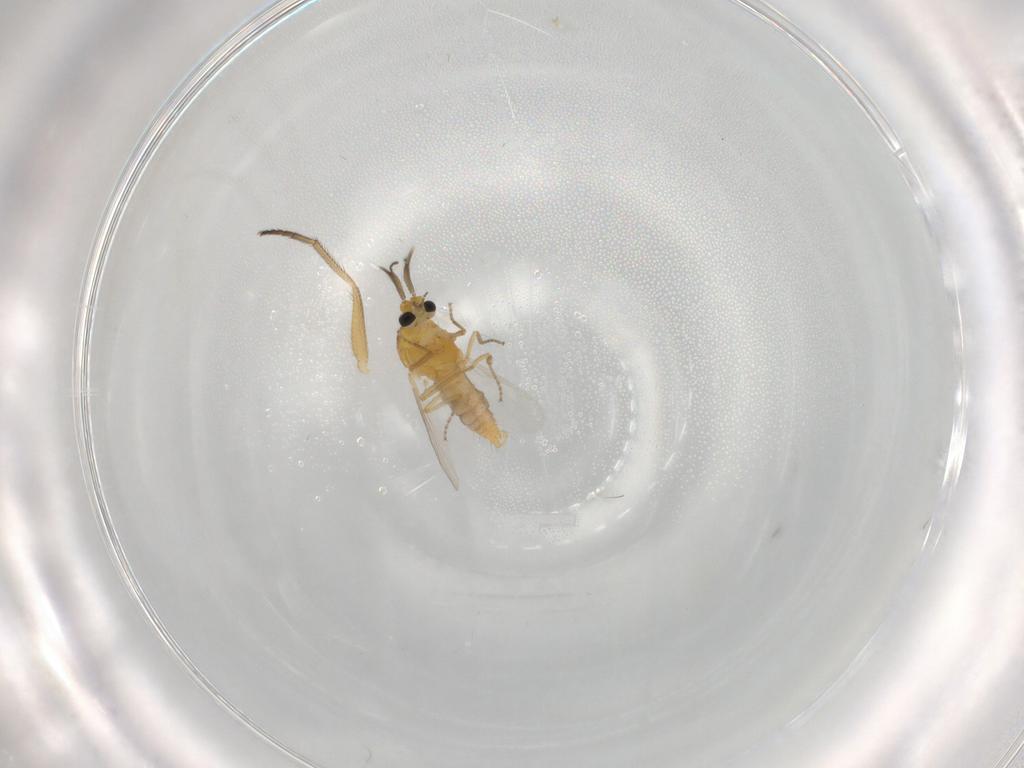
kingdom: Animalia
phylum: Arthropoda
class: Insecta
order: Diptera
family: Ceratopogonidae
